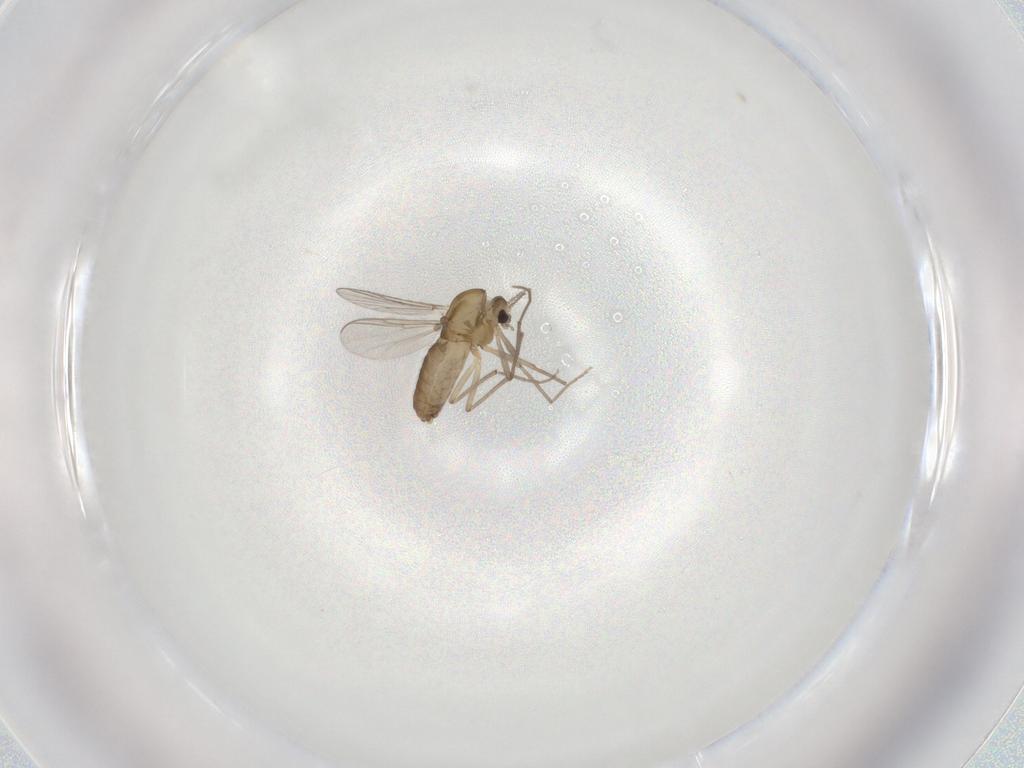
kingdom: Animalia
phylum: Arthropoda
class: Insecta
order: Diptera
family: Chironomidae
